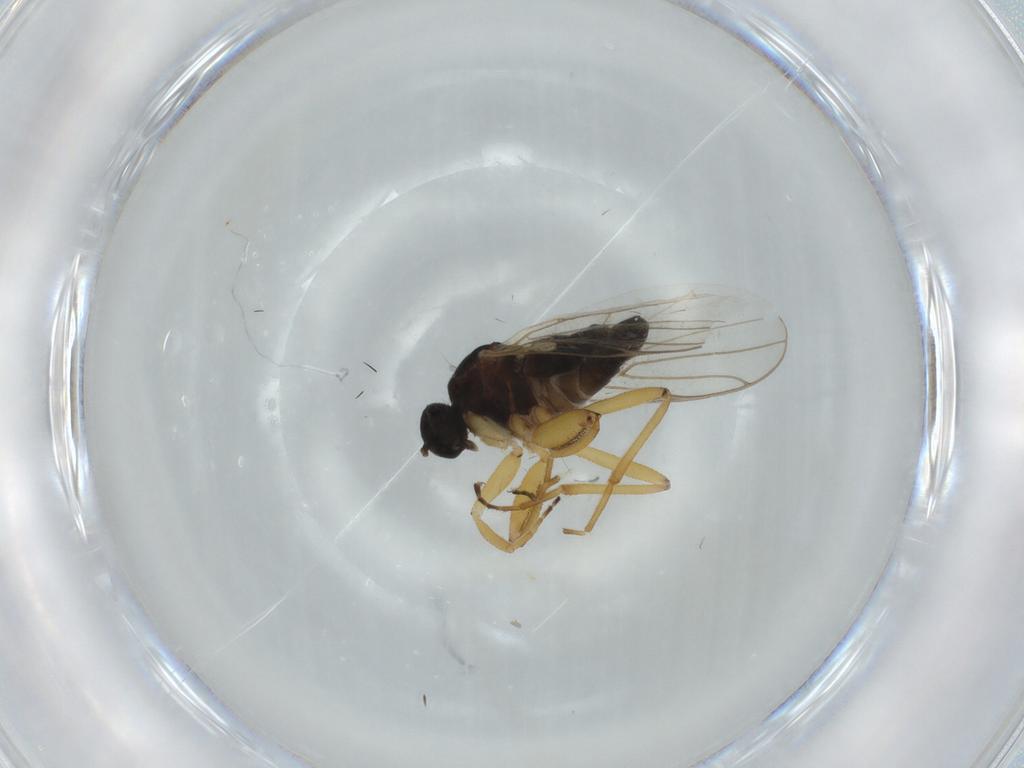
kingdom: Animalia
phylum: Arthropoda
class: Insecta
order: Diptera
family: Hybotidae
